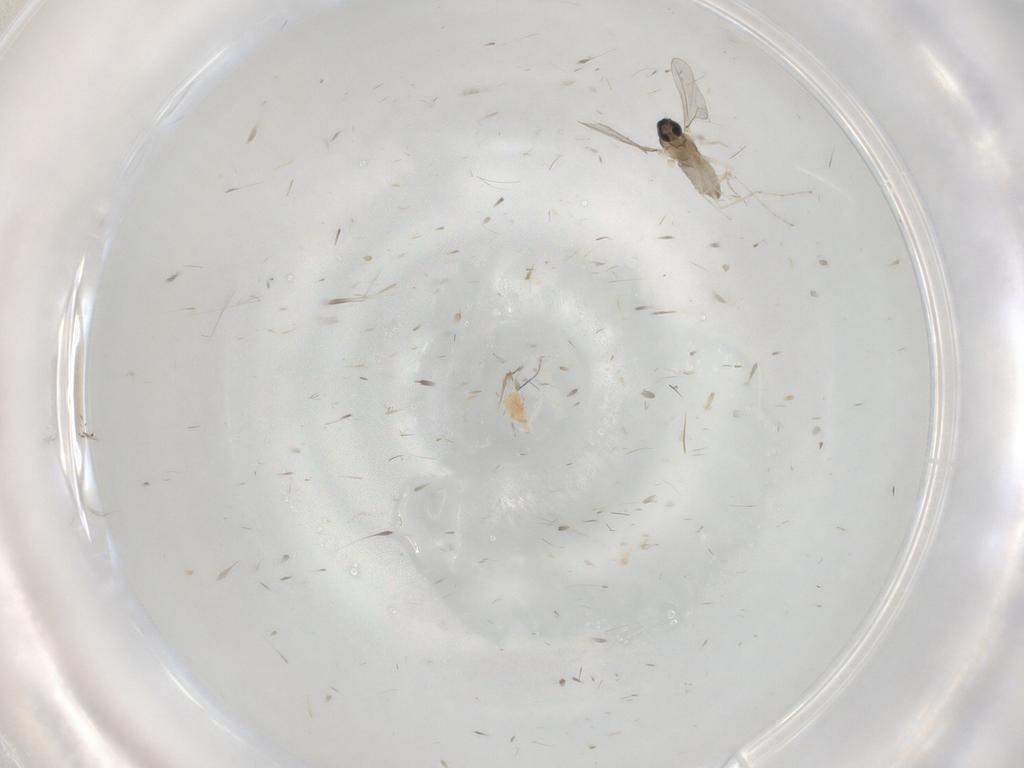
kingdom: Animalia
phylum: Arthropoda
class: Insecta
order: Diptera
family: Cecidomyiidae
